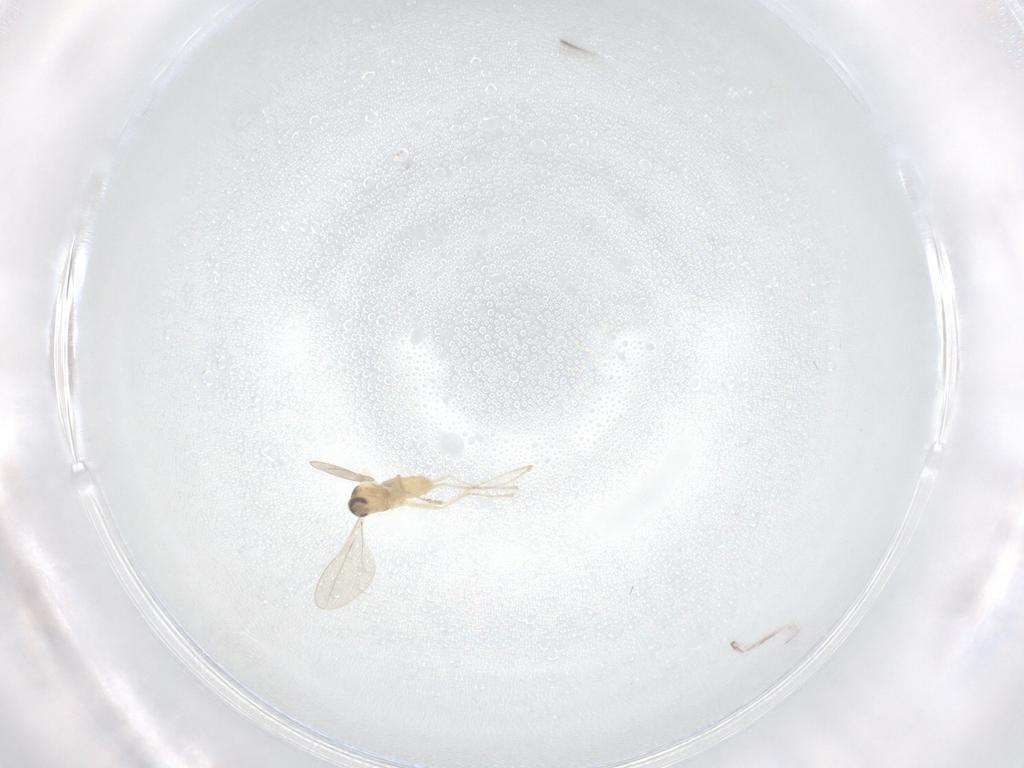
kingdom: Animalia
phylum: Arthropoda
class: Insecta
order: Diptera
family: Cecidomyiidae
